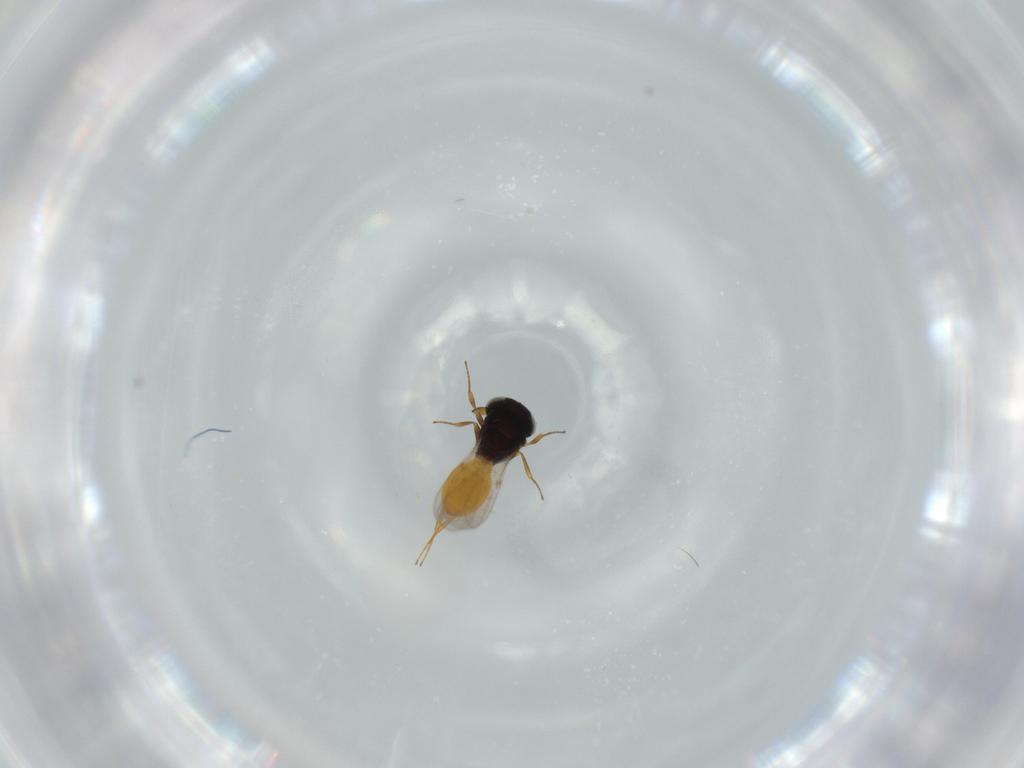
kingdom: Animalia
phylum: Arthropoda
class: Insecta
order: Hymenoptera
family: Scelionidae
